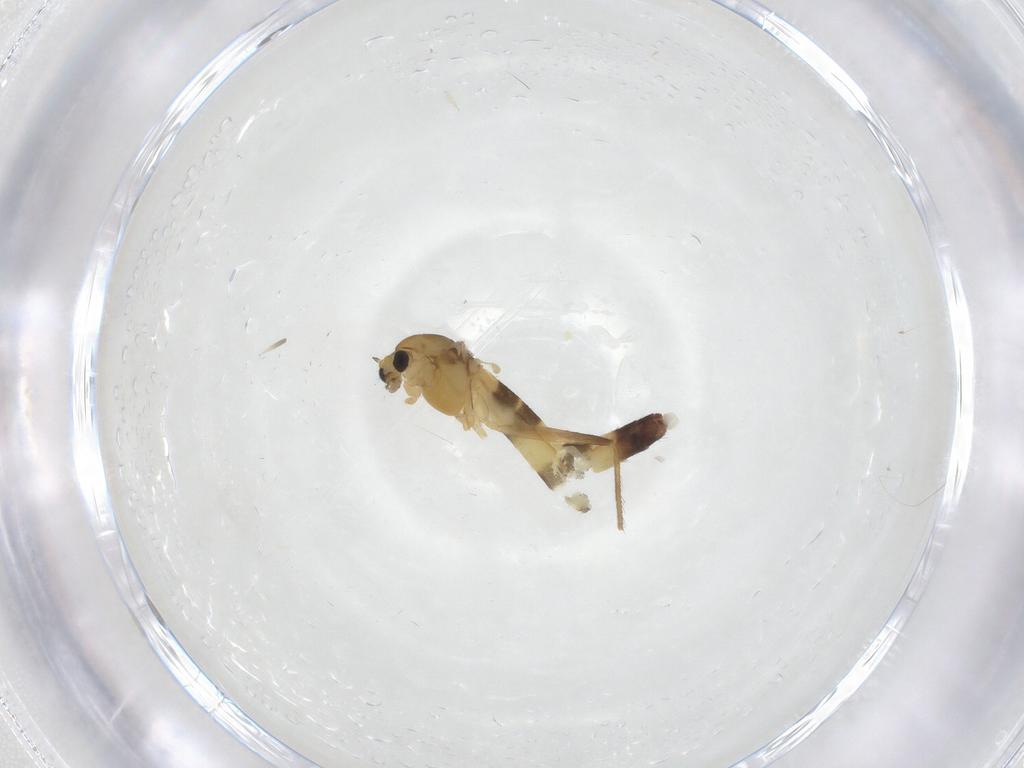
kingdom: Animalia
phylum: Arthropoda
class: Insecta
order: Diptera
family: Chironomidae
